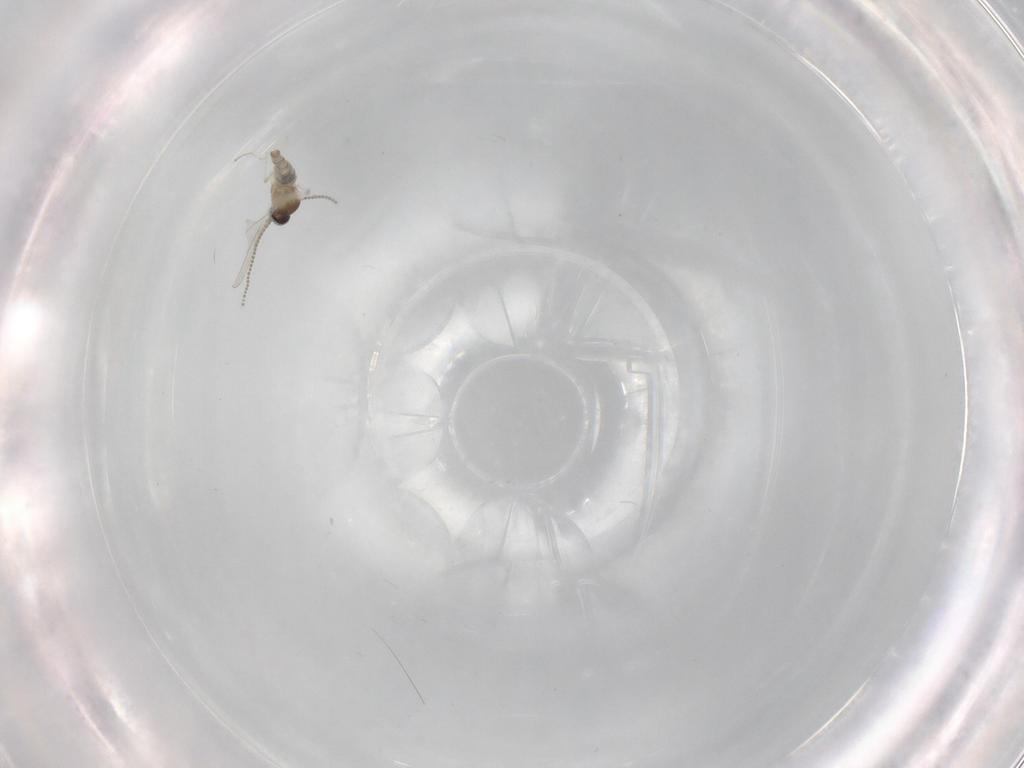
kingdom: Animalia
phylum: Arthropoda
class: Insecta
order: Diptera
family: Cecidomyiidae
